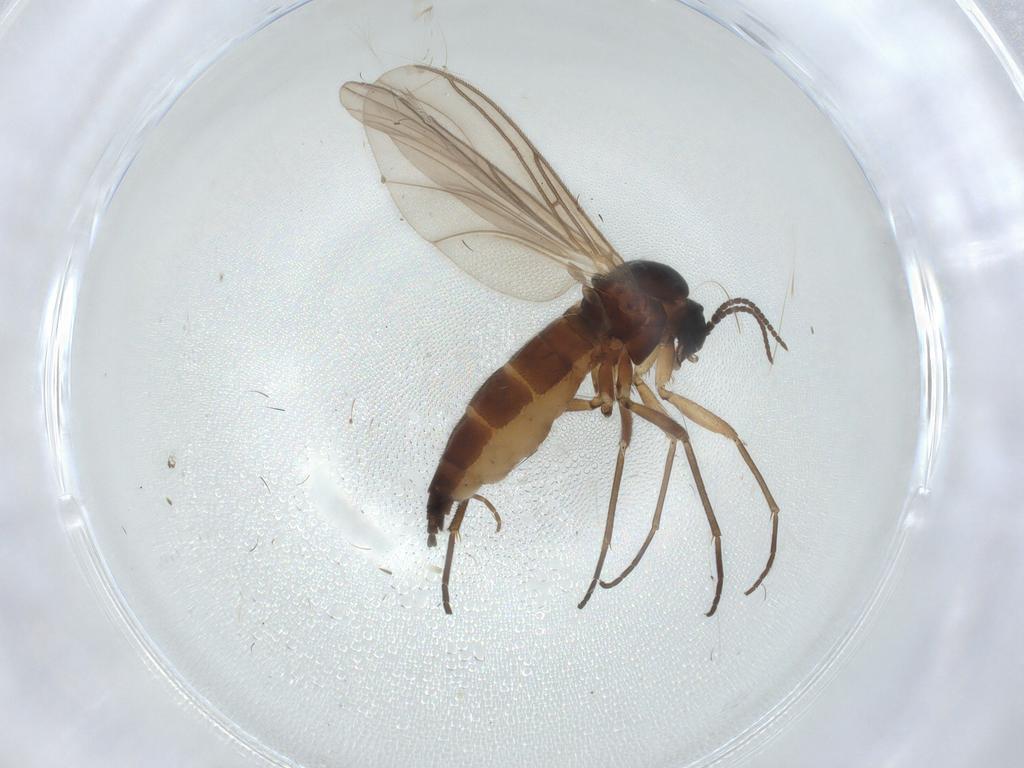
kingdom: Animalia
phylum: Arthropoda
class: Insecta
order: Diptera
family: Sciaridae
